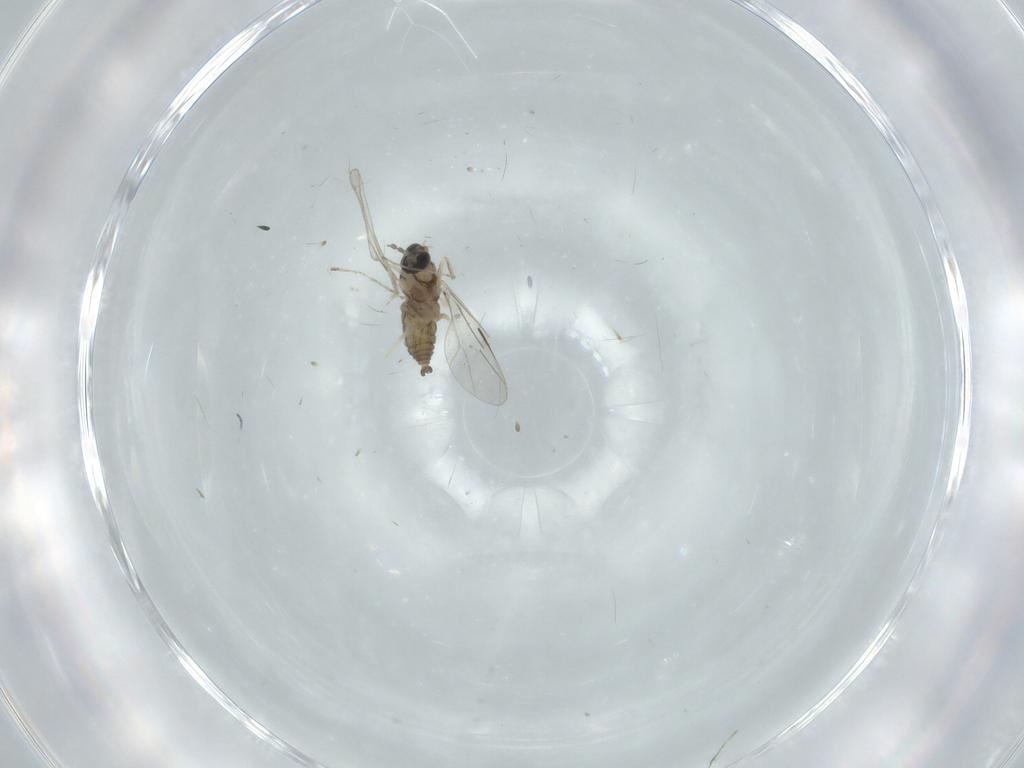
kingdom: Animalia
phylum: Arthropoda
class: Insecta
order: Diptera
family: Cecidomyiidae
